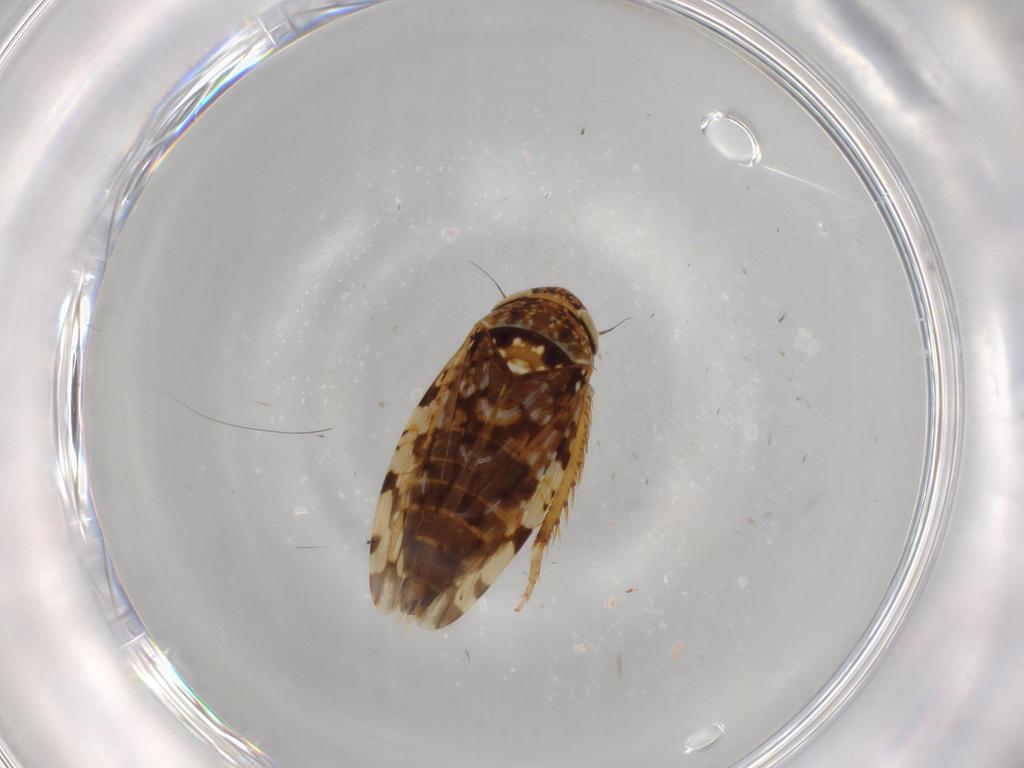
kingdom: Animalia
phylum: Arthropoda
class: Insecta
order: Hemiptera
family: Cicadellidae
